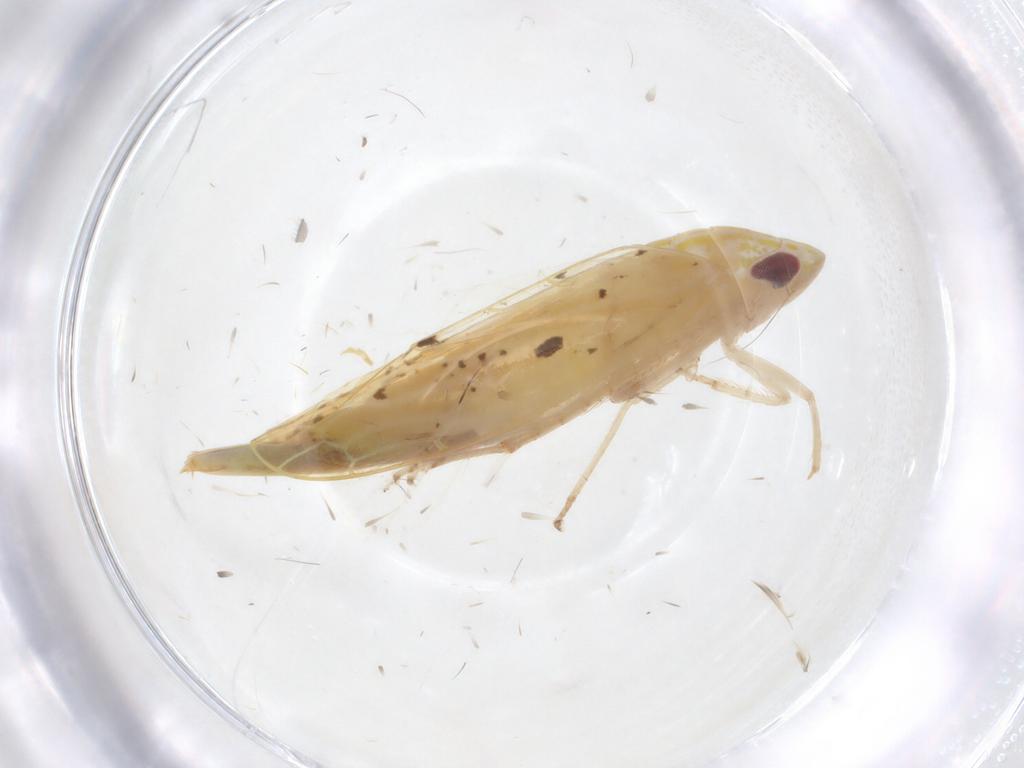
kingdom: Animalia
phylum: Arthropoda
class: Insecta
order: Hemiptera
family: Cicadellidae
